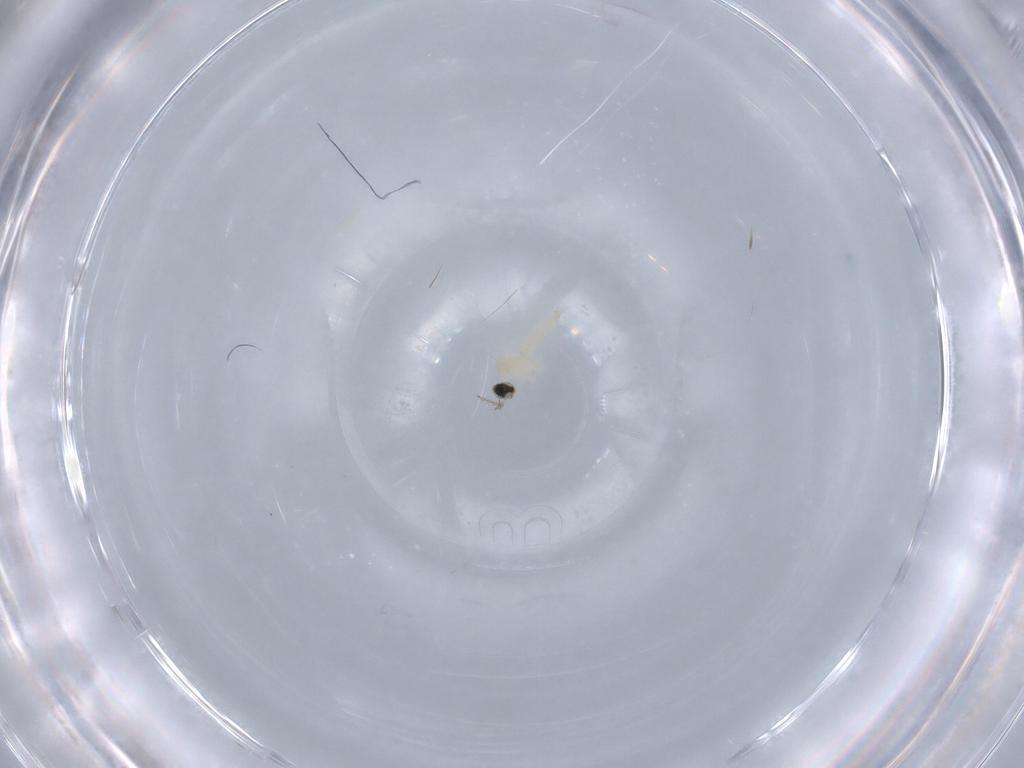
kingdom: Animalia
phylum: Arthropoda
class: Insecta
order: Diptera
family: Cecidomyiidae
